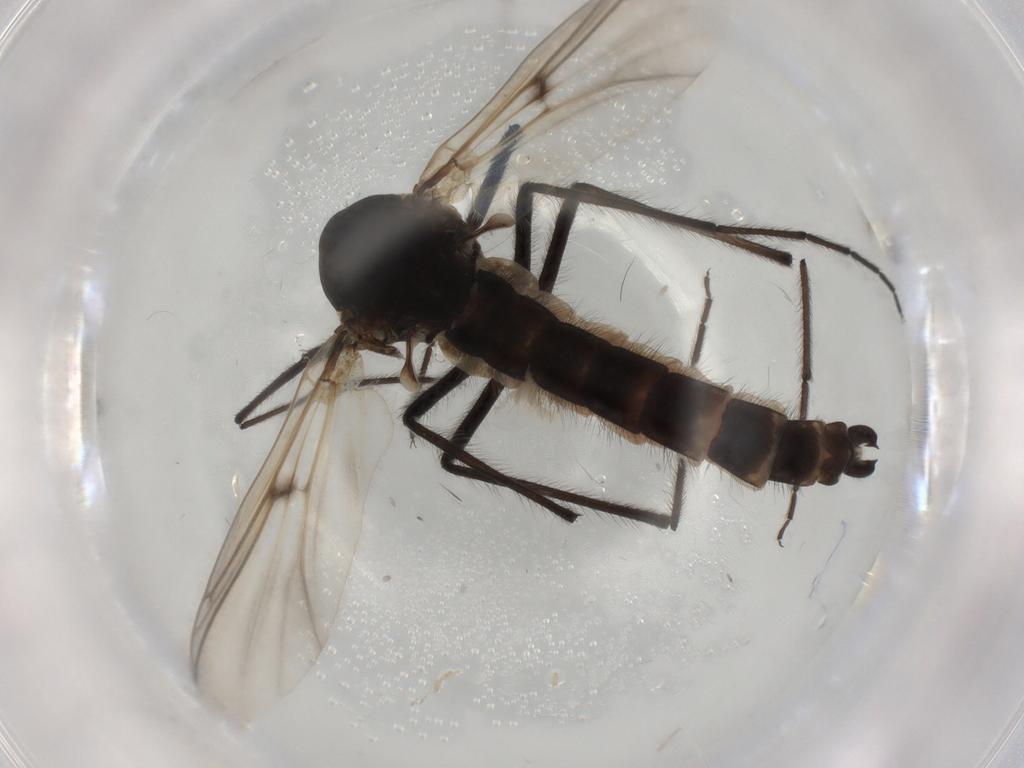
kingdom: Animalia
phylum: Arthropoda
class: Insecta
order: Diptera
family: Chironomidae
